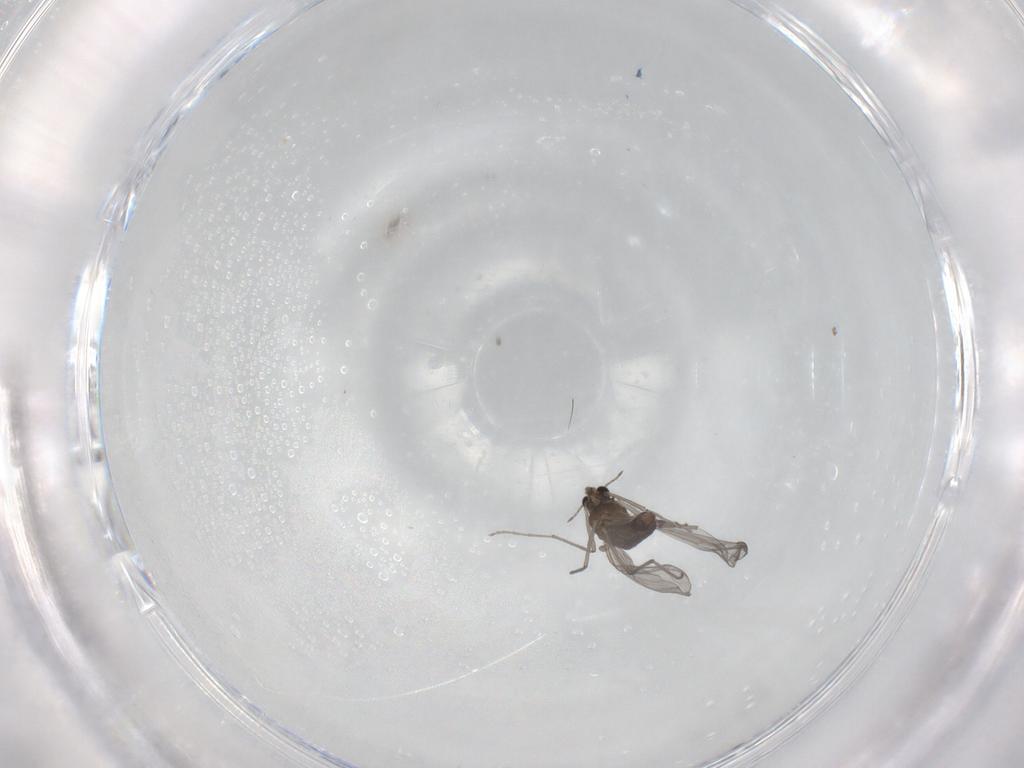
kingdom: Animalia
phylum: Arthropoda
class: Insecta
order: Diptera
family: Chironomidae
